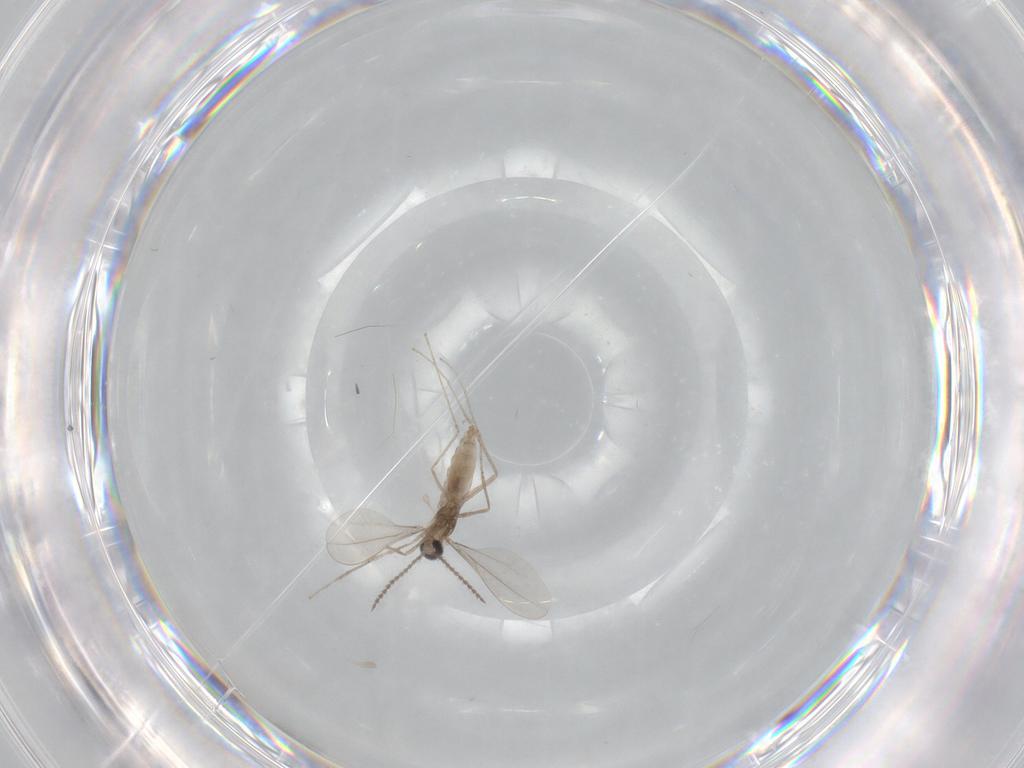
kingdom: Animalia
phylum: Arthropoda
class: Insecta
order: Diptera
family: Cecidomyiidae
